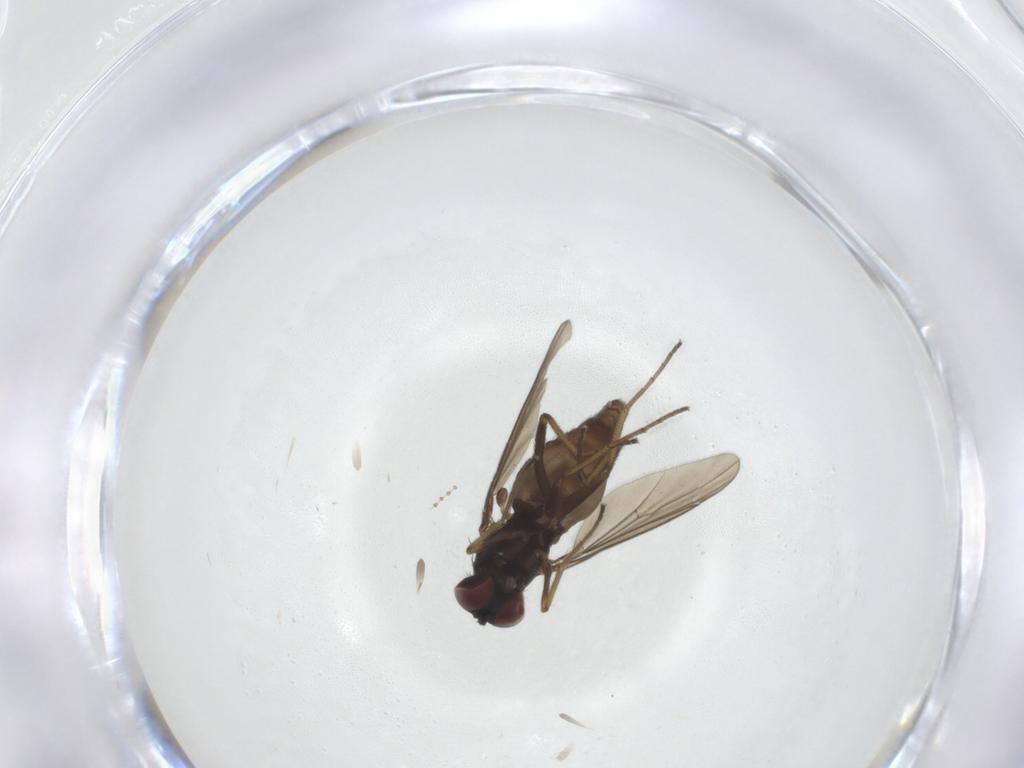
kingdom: Animalia
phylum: Arthropoda
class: Insecta
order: Diptera
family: Dolichopodidae
